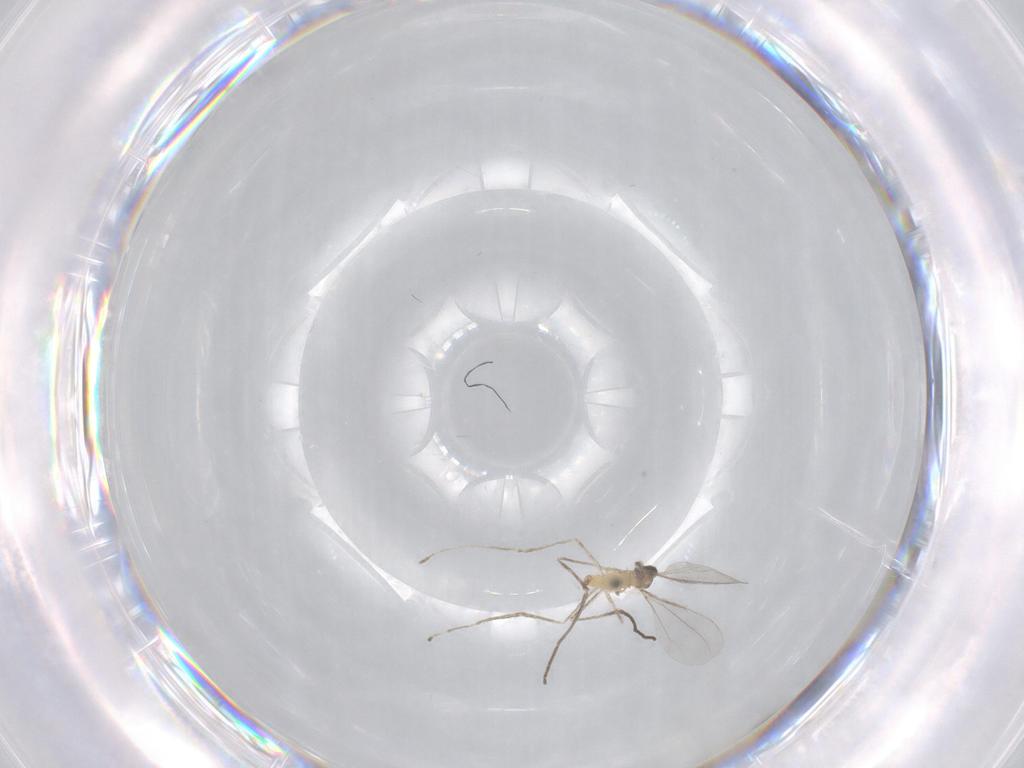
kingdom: Animalia
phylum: Arthropoda
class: Insecta
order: Diptera
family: Cecidomyiidae
